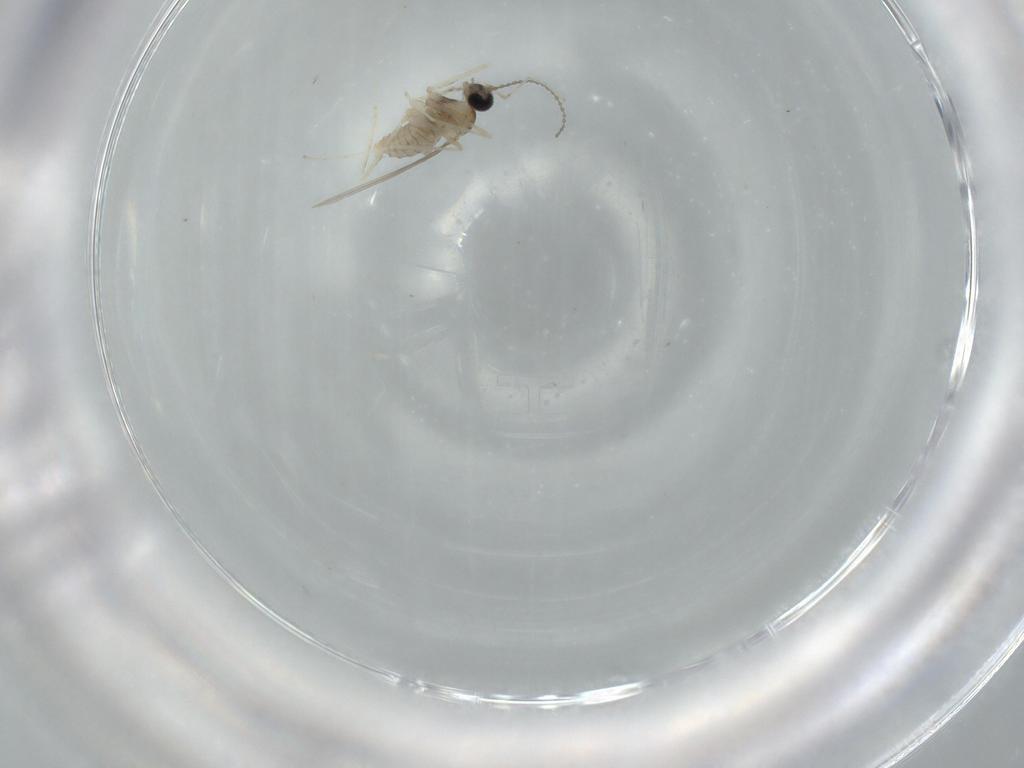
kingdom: Animalia
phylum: Arthropoda
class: Insecta
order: Diptera
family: Cecidomyiidae
